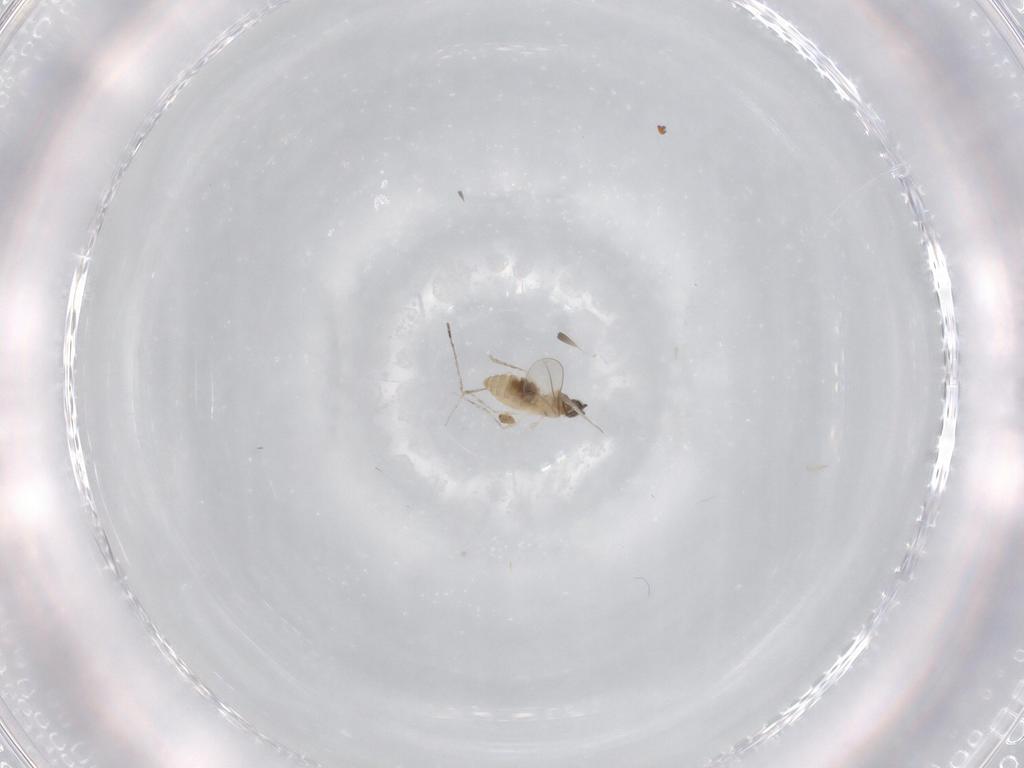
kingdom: Animalia
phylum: Arthropoda
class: Insecta
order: Diptera
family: Cecidomyiidae
